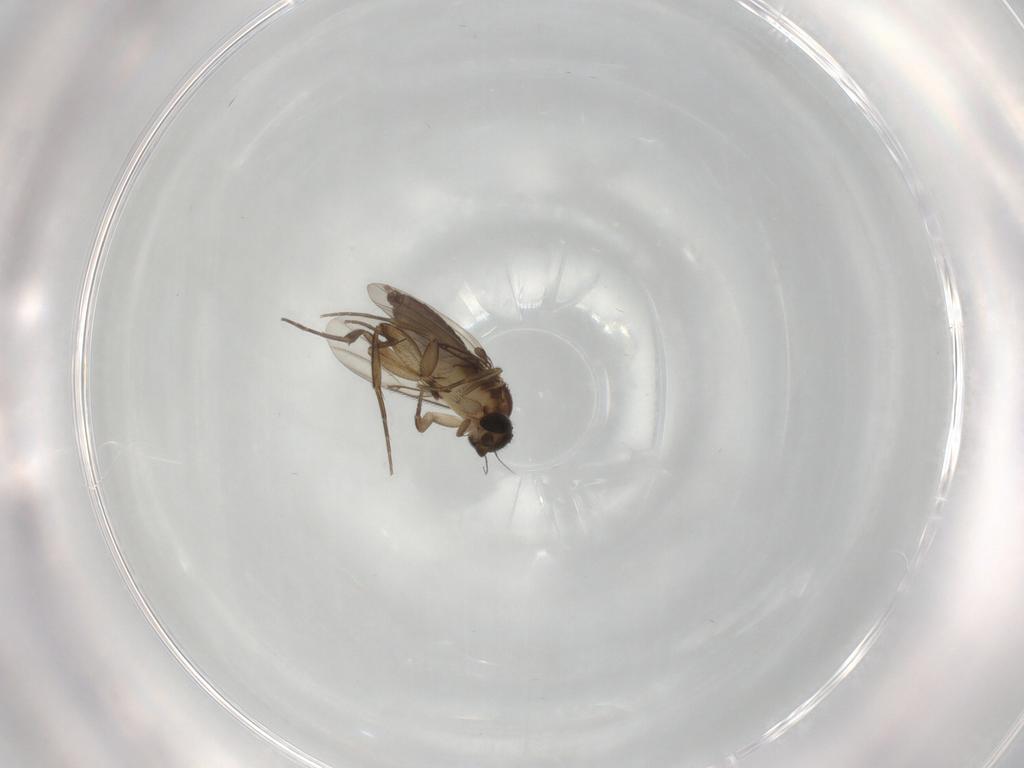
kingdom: Animalia
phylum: Arthropoda
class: Insecta
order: Diptera
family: Phoridae
